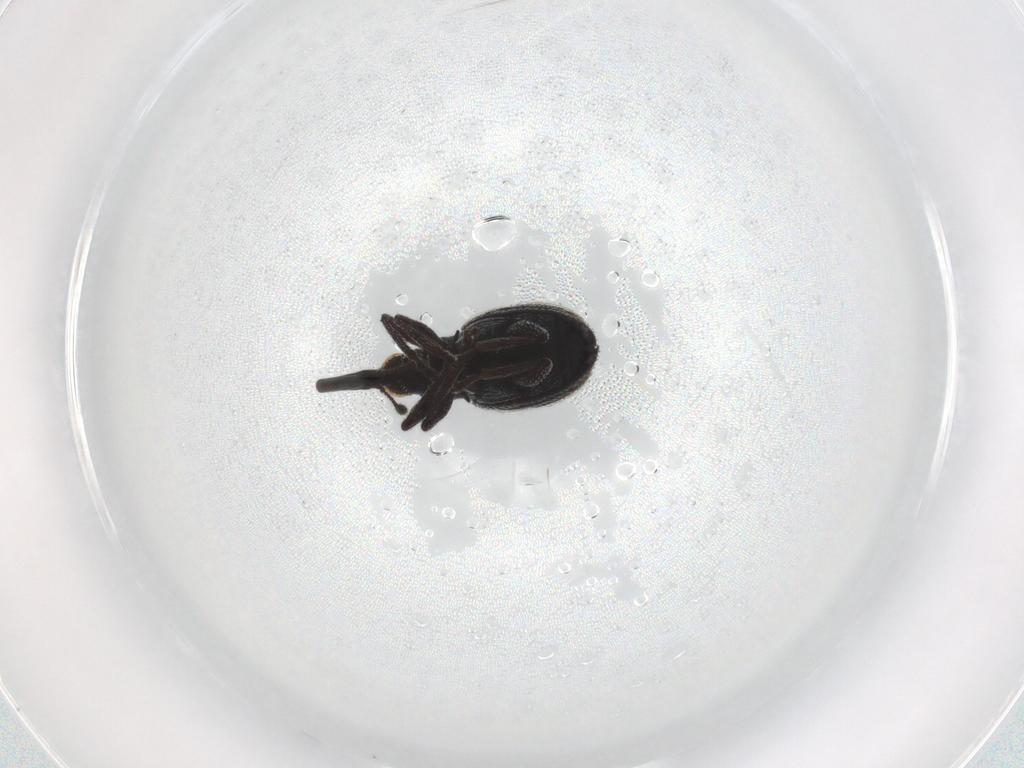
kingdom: Animalia
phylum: Arthropoda
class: Insecta
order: Coleoptera
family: Brentidae
